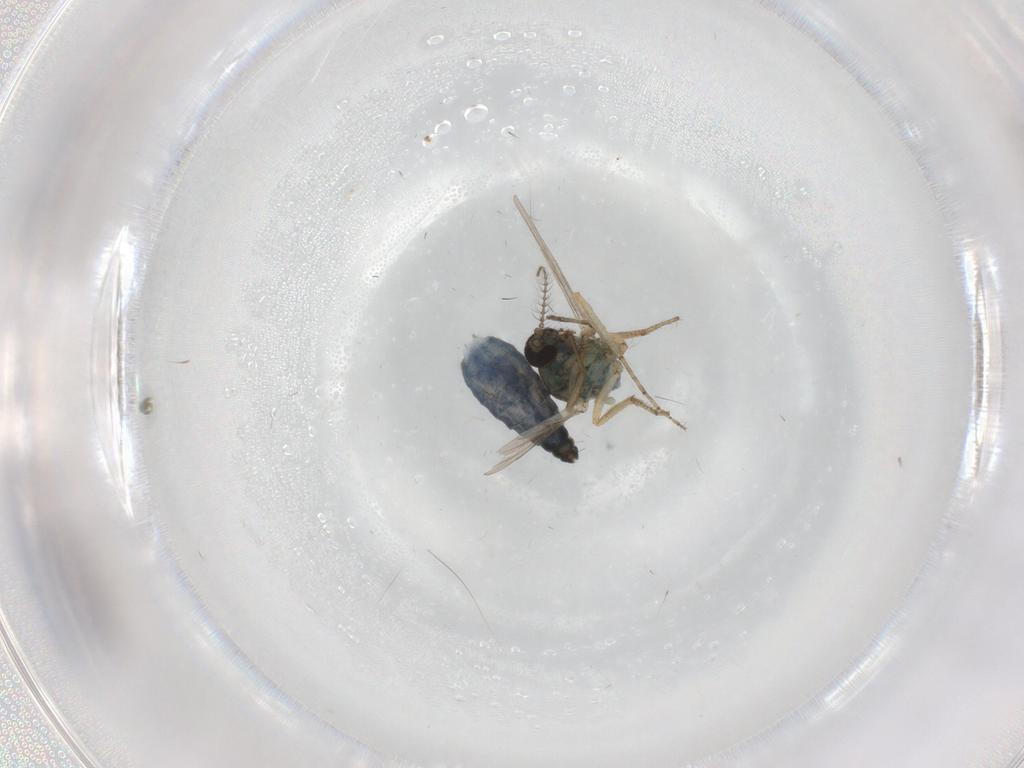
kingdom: Animalia
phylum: Arthropoda
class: Insecta
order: Diptera
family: Ceratopogonidae
